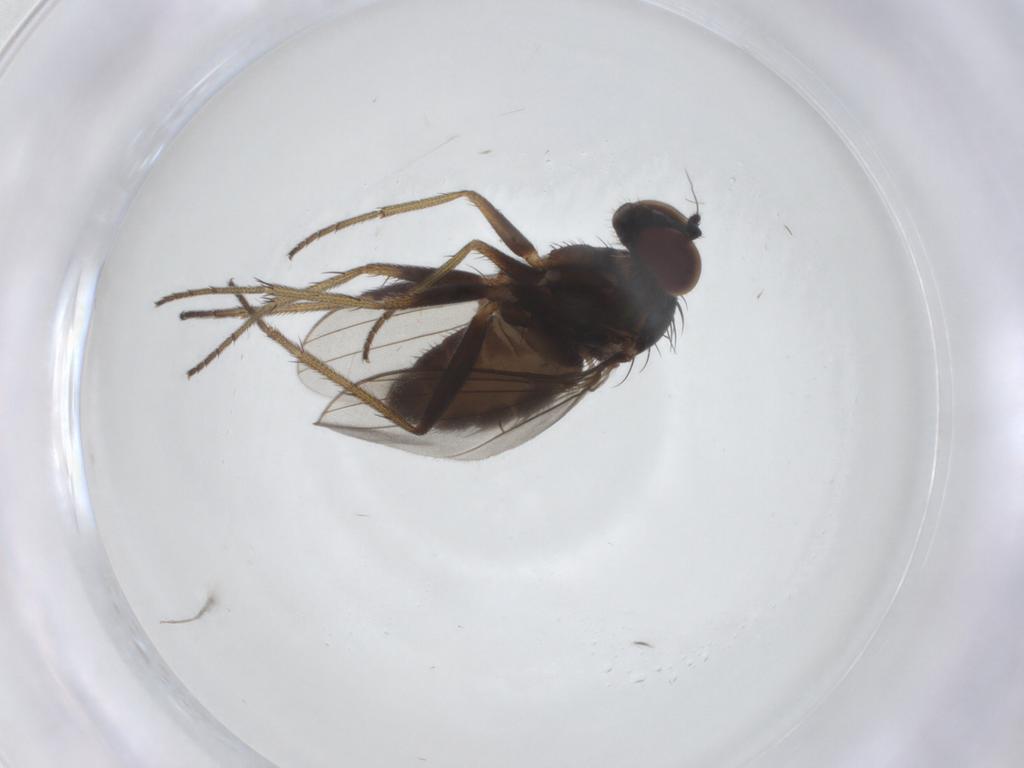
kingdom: Animalia
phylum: Arthropoda
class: Insecta
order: Diptera
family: Dolichopodidae
